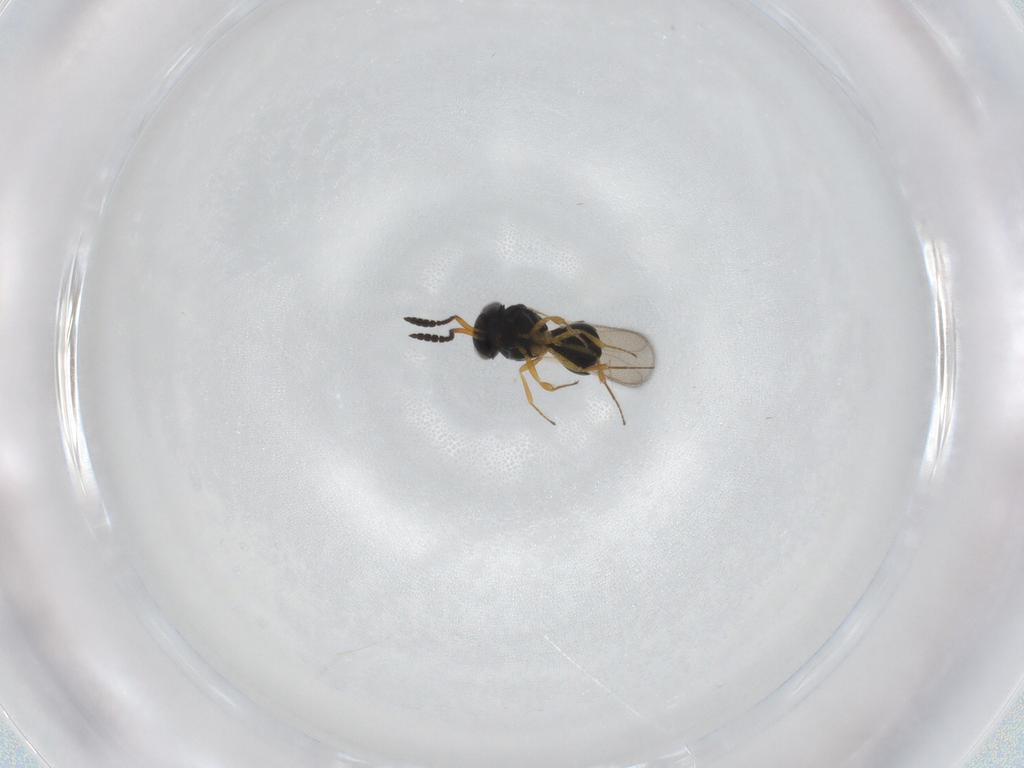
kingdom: Animalia
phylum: Arthropoda
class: Insecta
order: Hymenoptera
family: Scelionidae
